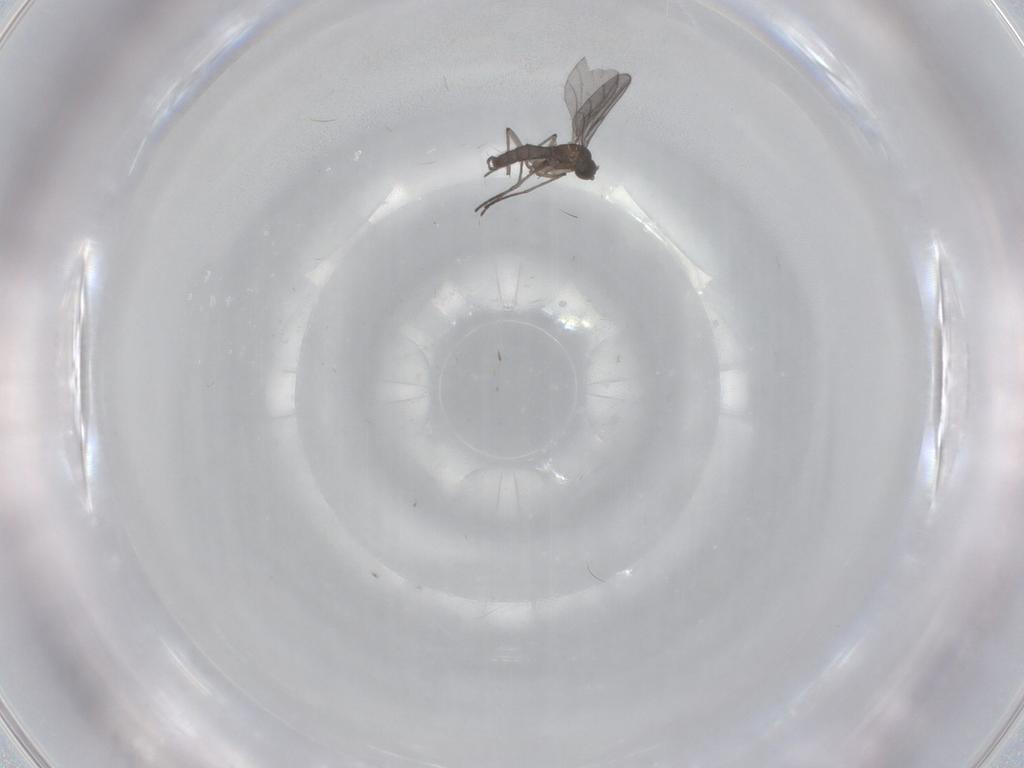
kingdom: Animalia
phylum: Arthropoda
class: Insecta
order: Diptera
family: Milichiidae
